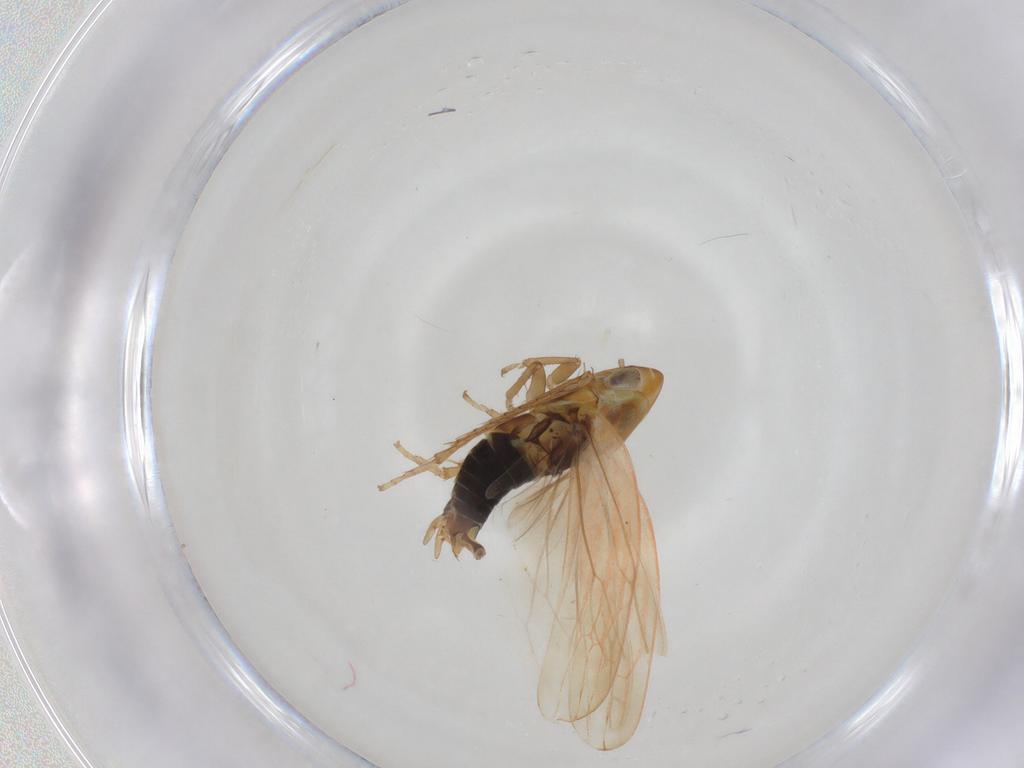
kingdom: Animalia
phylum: Arthropoda
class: Insecta
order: Hemiptera
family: Cicadellidae
